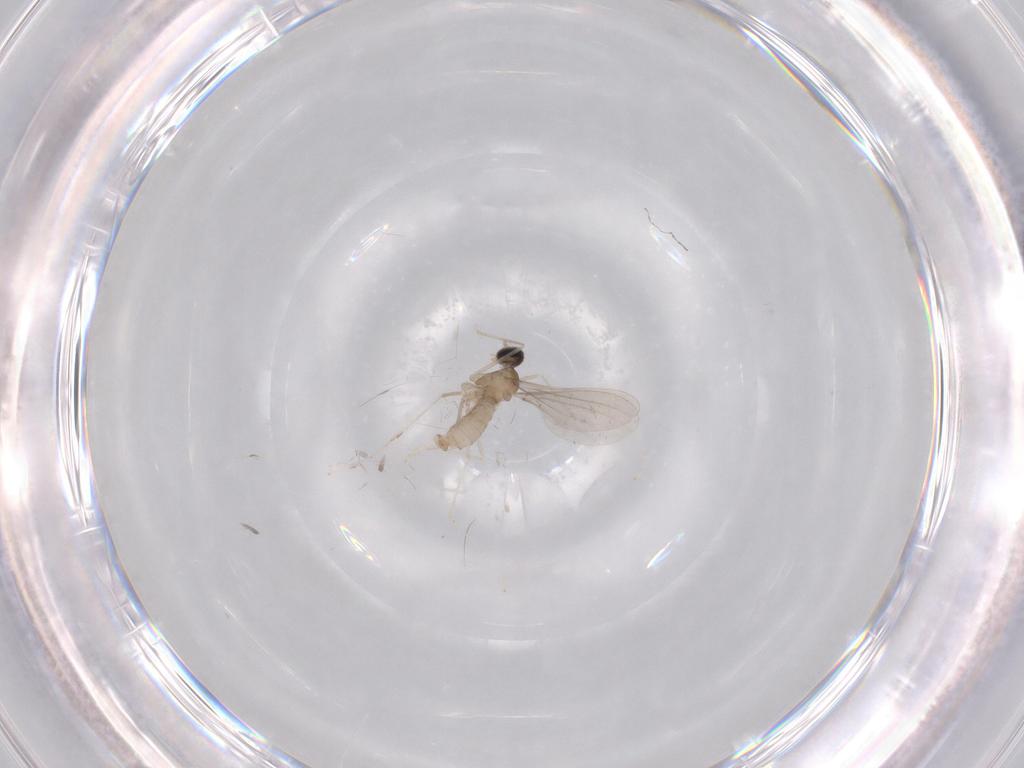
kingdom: Animalia
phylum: Arthropoda
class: Insecta
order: Diptera
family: Cecidomyiidae
